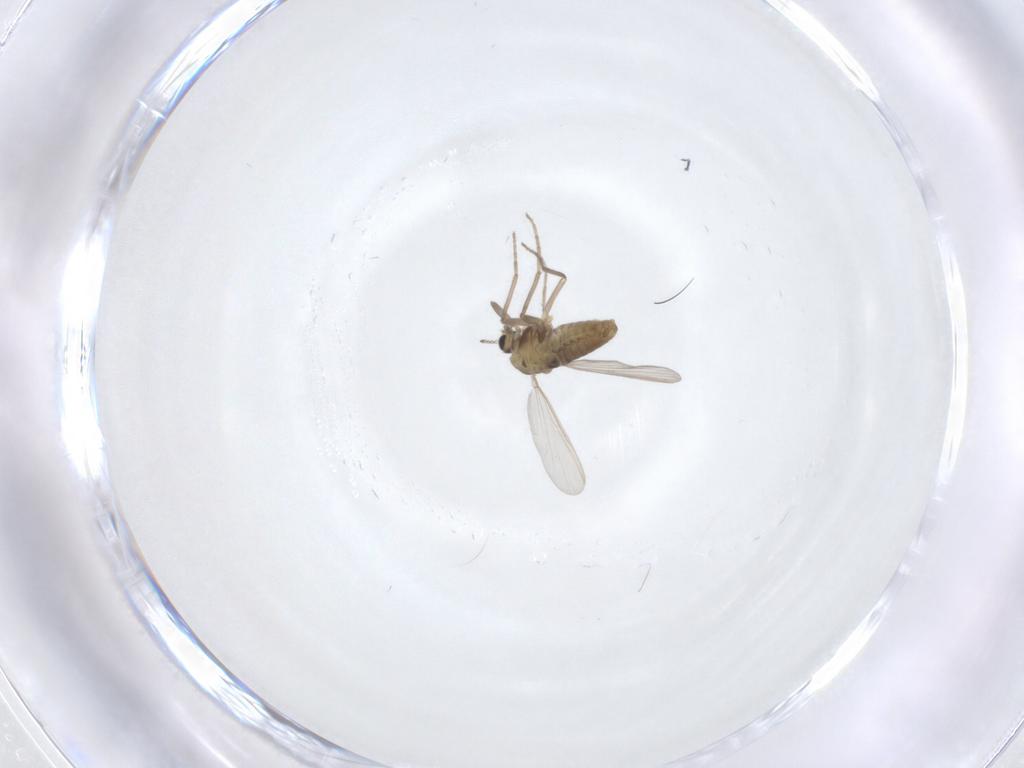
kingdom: Animalia
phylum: Arthropoda
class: Insecta
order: Diptera
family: Chironomidae
